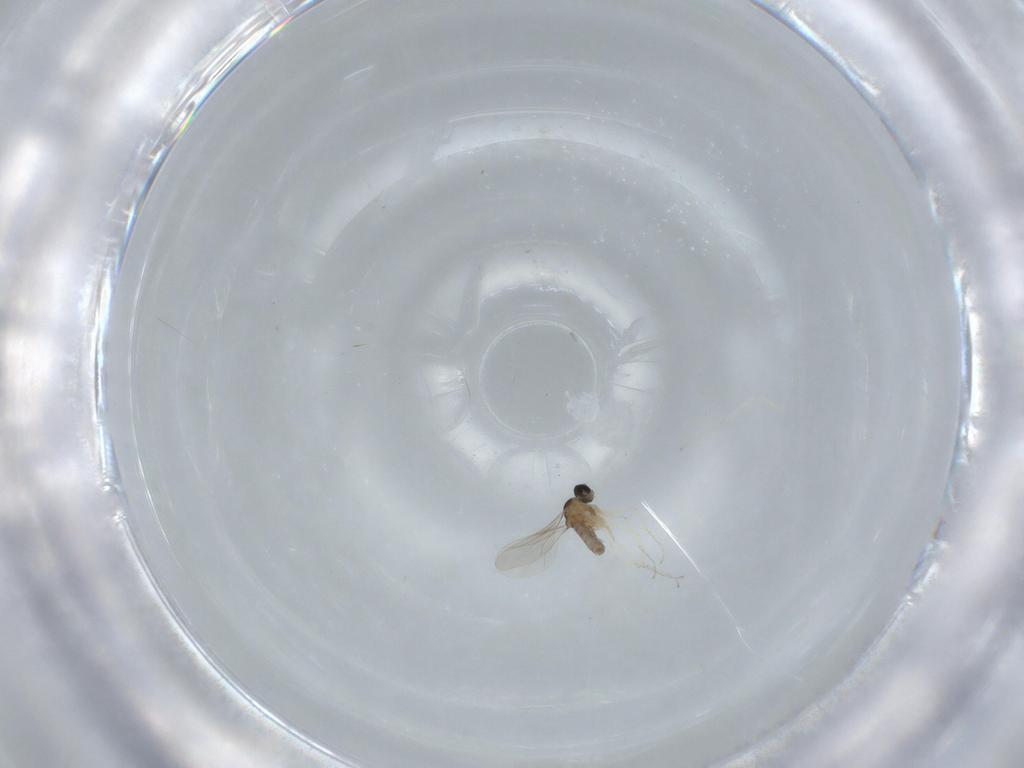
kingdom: Animalia
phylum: Arthropoda
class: Insecta
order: Diptera
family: Cecidomyiidae
